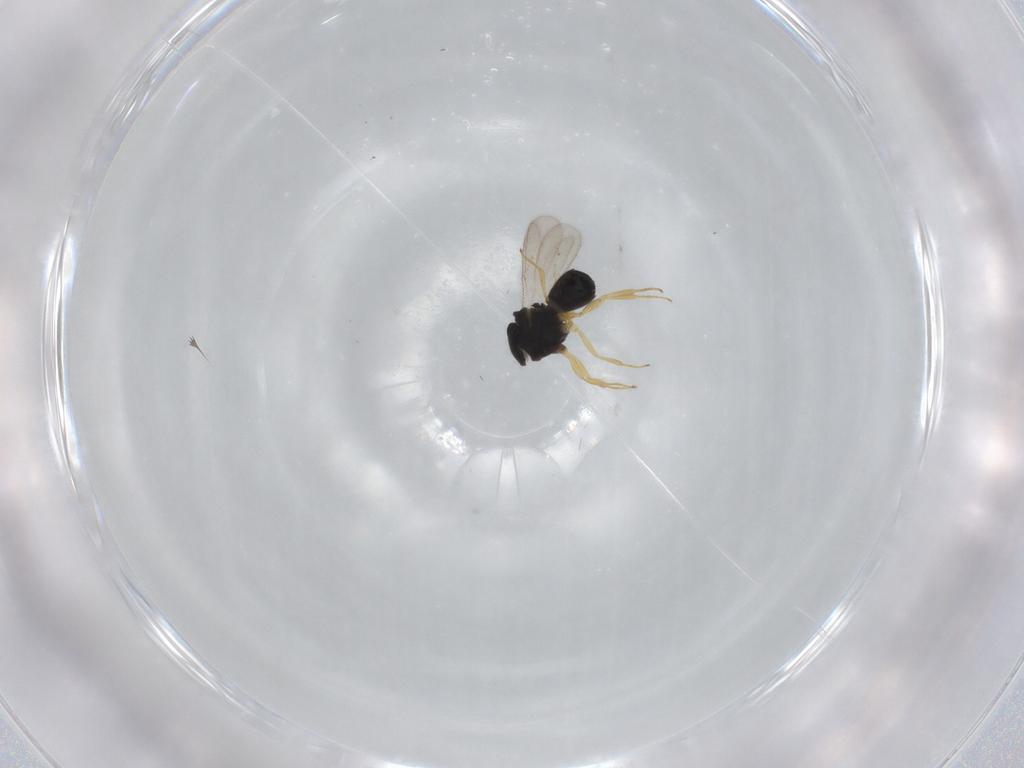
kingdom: Animalia
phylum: Arthropoda
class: Insecta
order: Hymenoptera
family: Scelionidae
